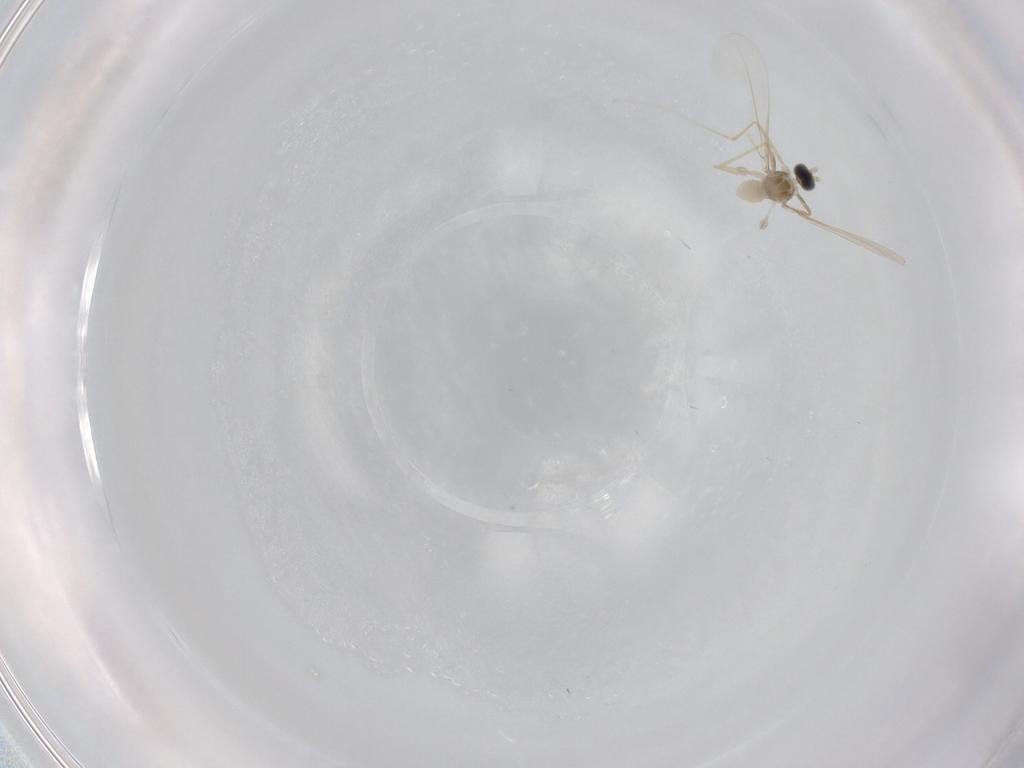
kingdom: Animalia
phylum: Arthropoda
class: Insecta
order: Diptera
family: Cecidomyiidae
